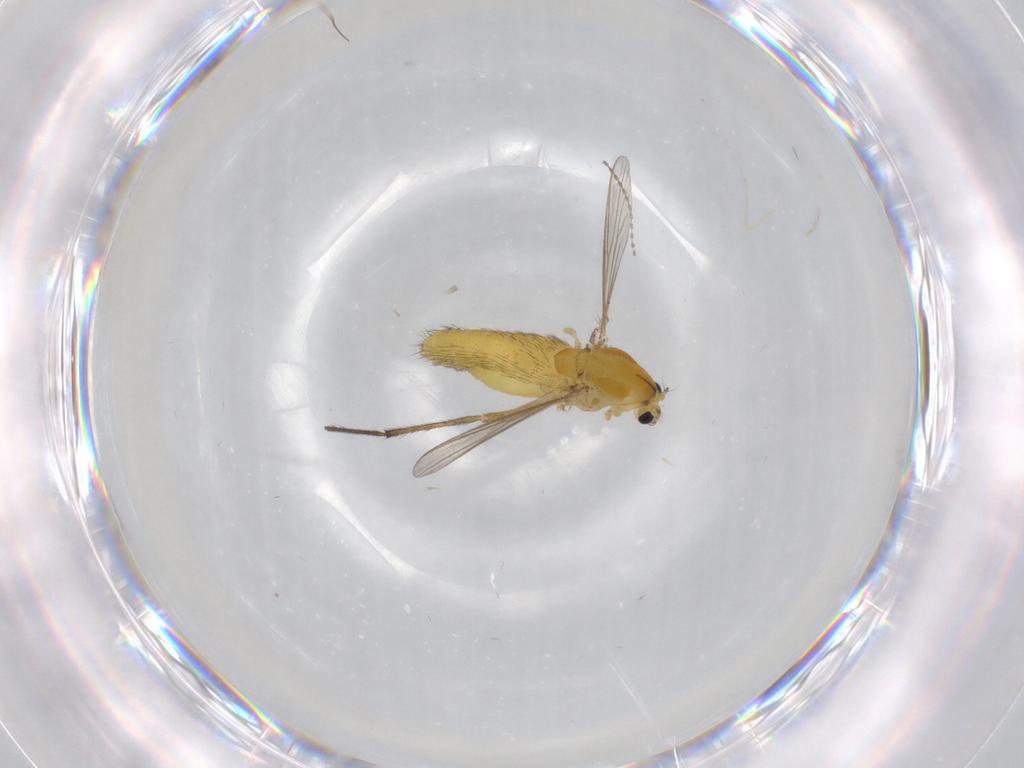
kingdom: Animalia
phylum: Arthropoda
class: Insecta
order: Diptera
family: Chironomidae
